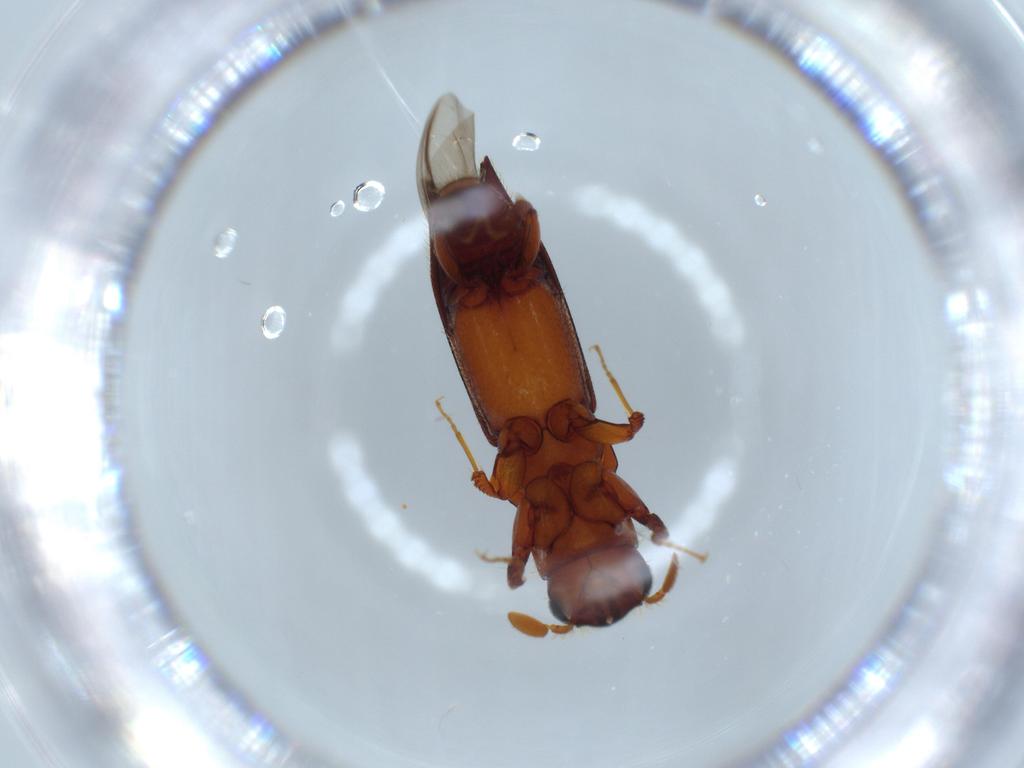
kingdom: Animalia
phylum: Arthropoda
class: Insecta
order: Coleoptera
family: Curculionidae
